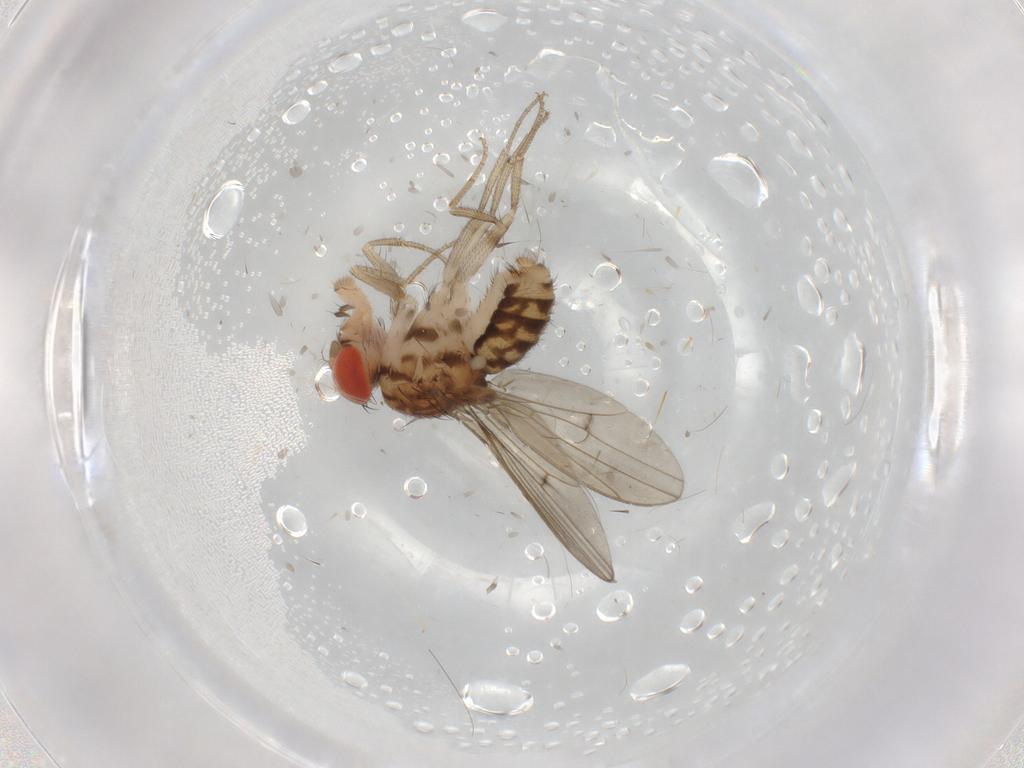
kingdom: Animalia
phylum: Arthropoda
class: Insecta
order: Diptera
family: Drosophilidae
